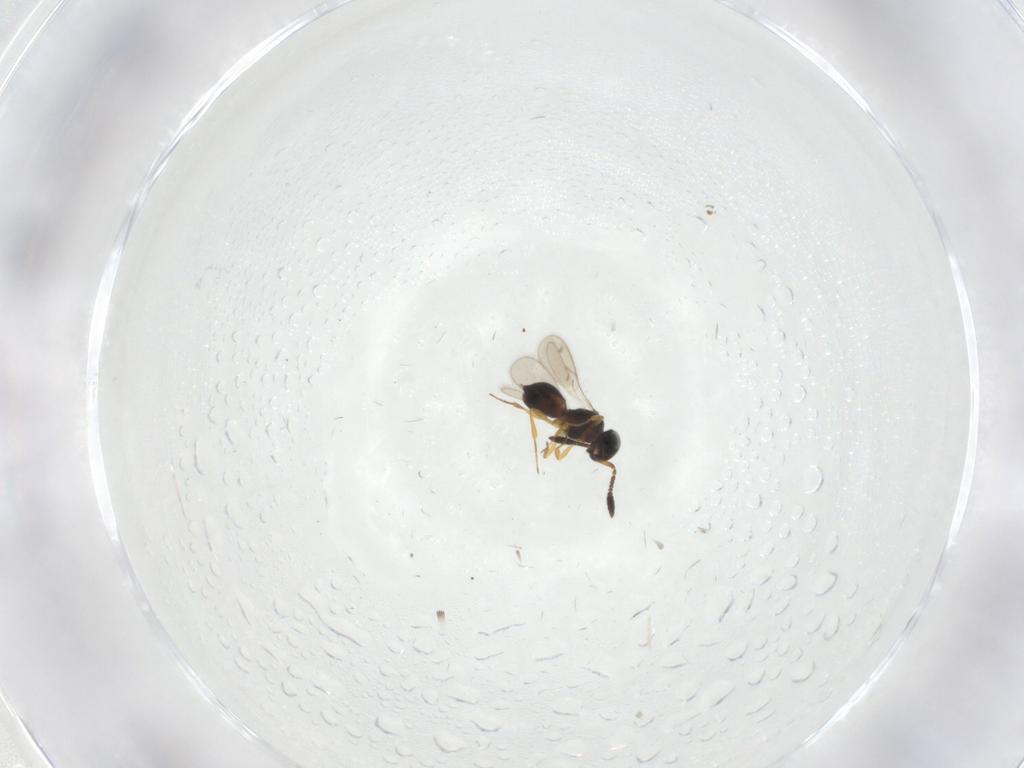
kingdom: Animalia
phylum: Arthropoda
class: Insecta
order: Hymenoptera
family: Scelionidae
